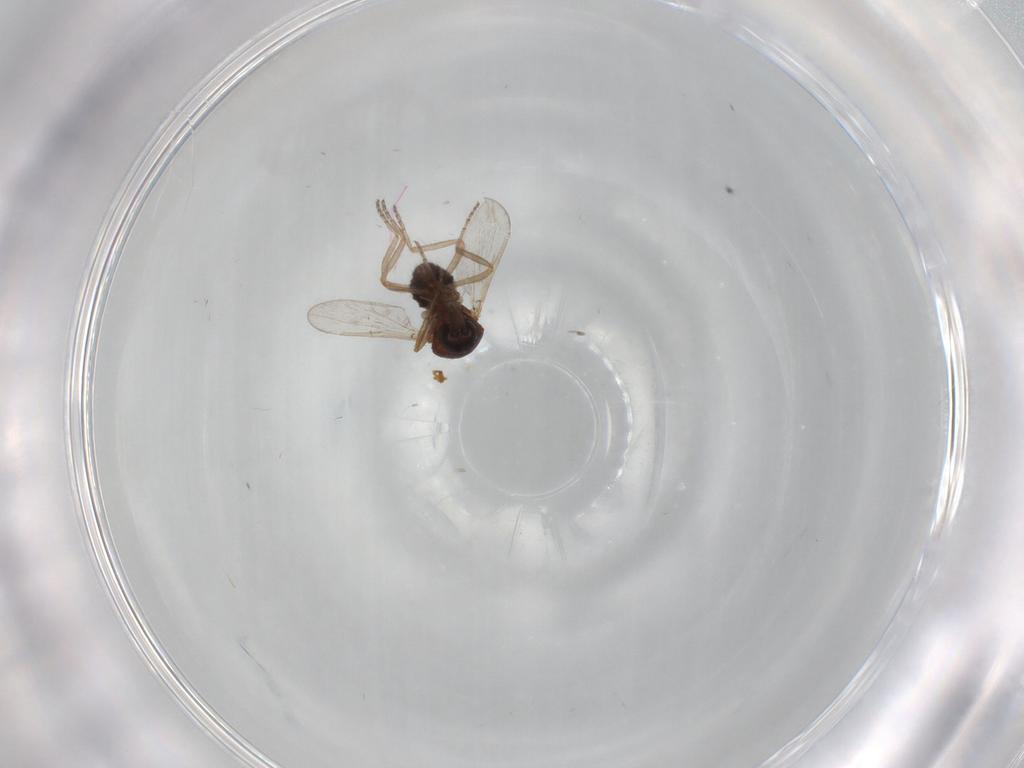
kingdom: Animalia
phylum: Arthropoda
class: Insecta
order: Diptera
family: Ceratopogonidae
